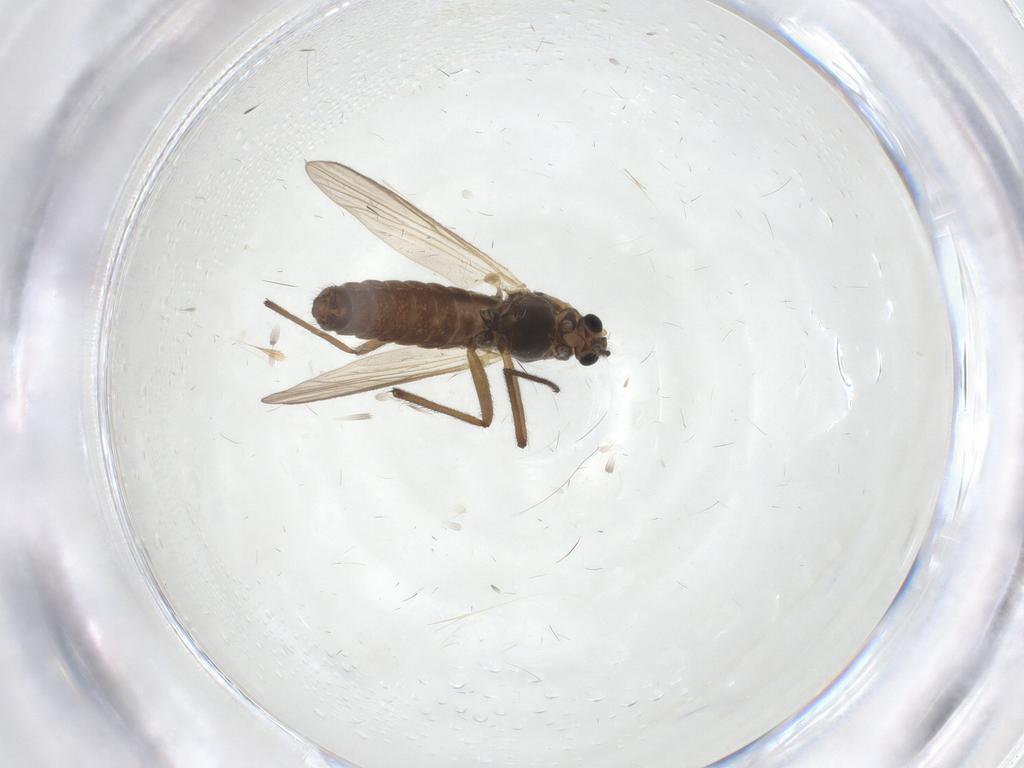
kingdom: Animalia
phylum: Arthropoda
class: Insecta
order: Diptera
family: Chironomidae
